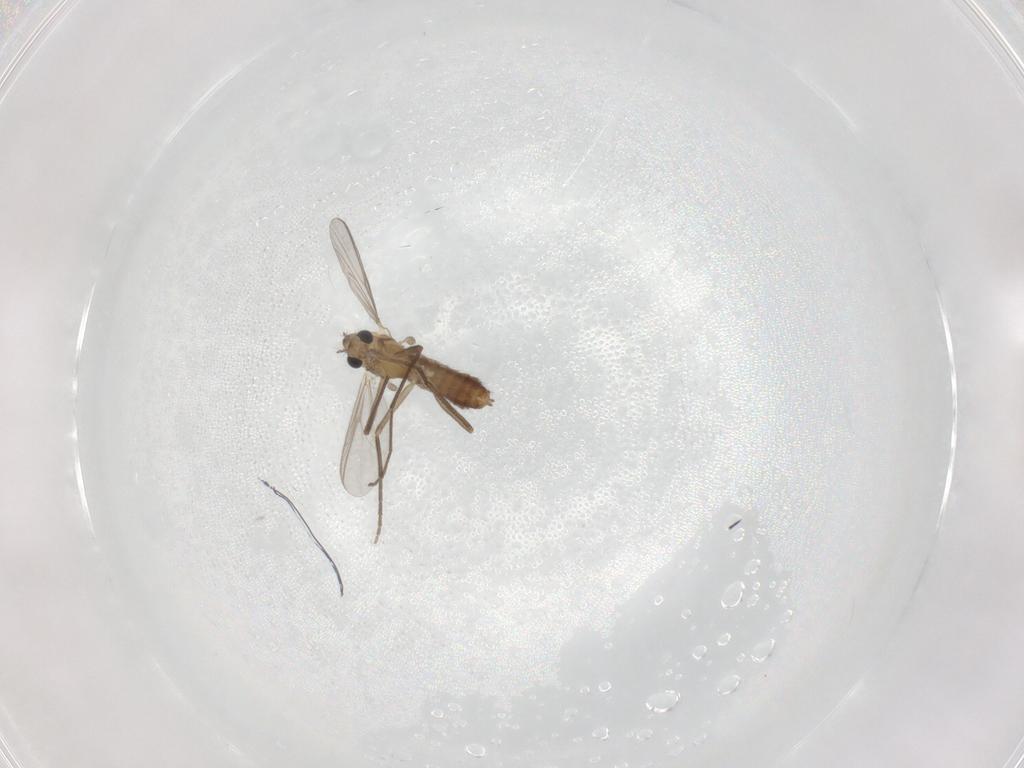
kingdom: Animalia
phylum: Arthropoda
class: Insecta
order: Diptera
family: Chironomidae
